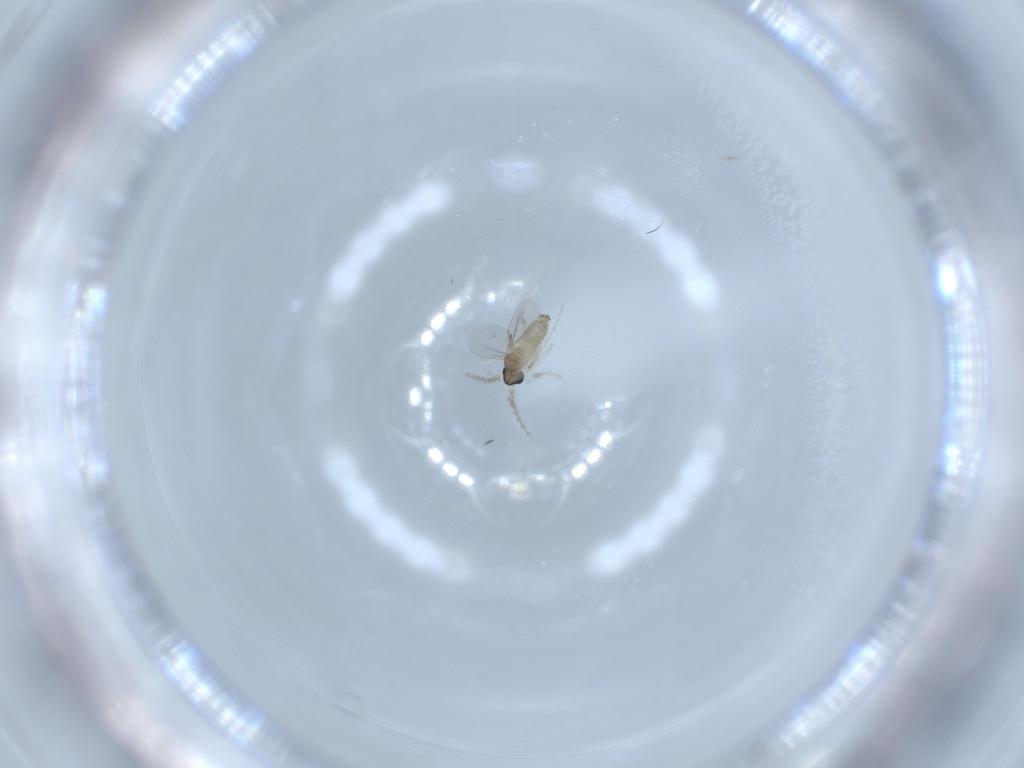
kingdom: Animalia
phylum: Arthropoda
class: Insecta
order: Diptera
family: Cecidomyiidae
